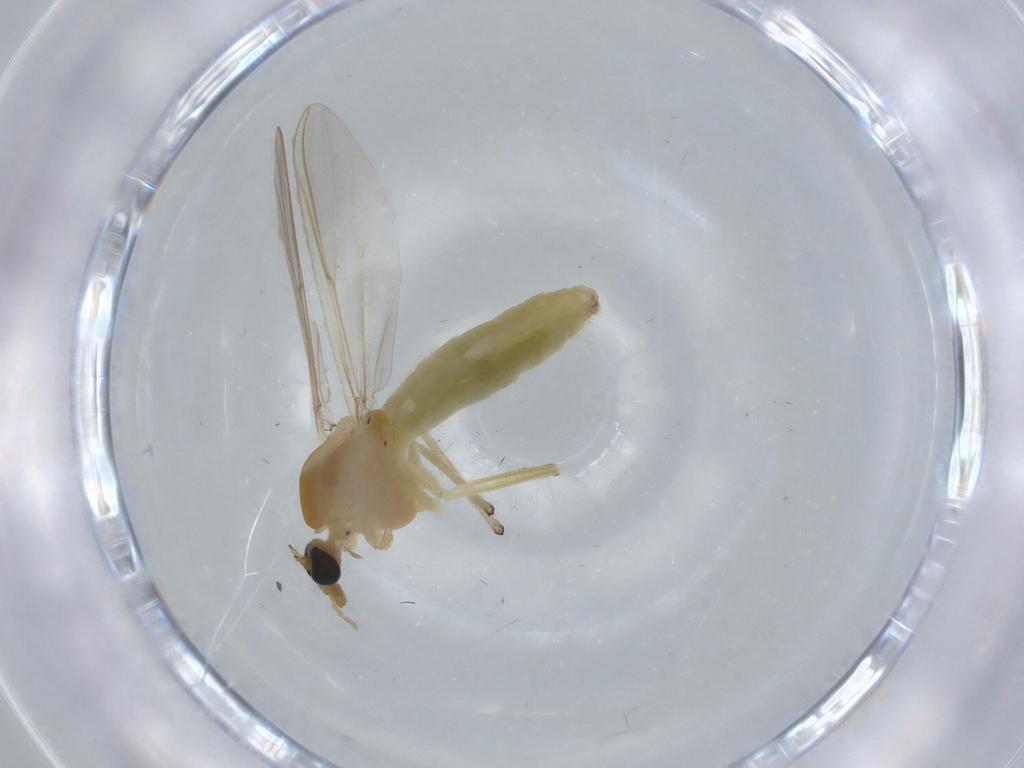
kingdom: Animalia
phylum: Arthropoda
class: Insecta
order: Diptera
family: Chironomidae
